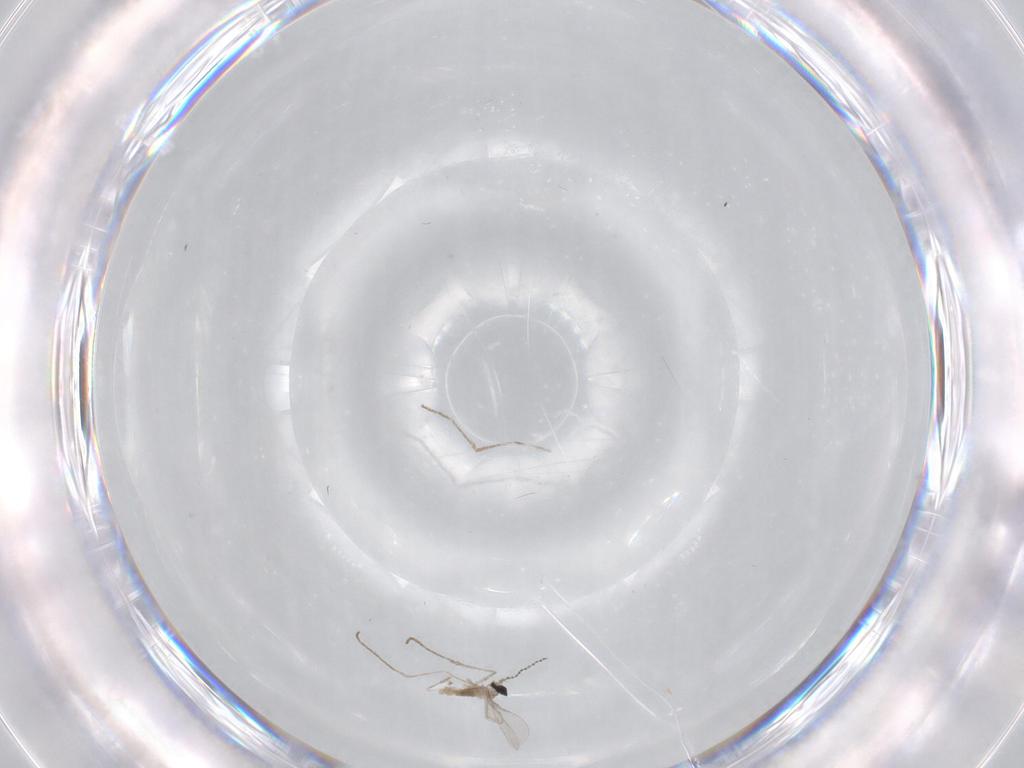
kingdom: Animalia
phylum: Arthropoda
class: Insecta
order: Diptera
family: Cecidomyiidae
